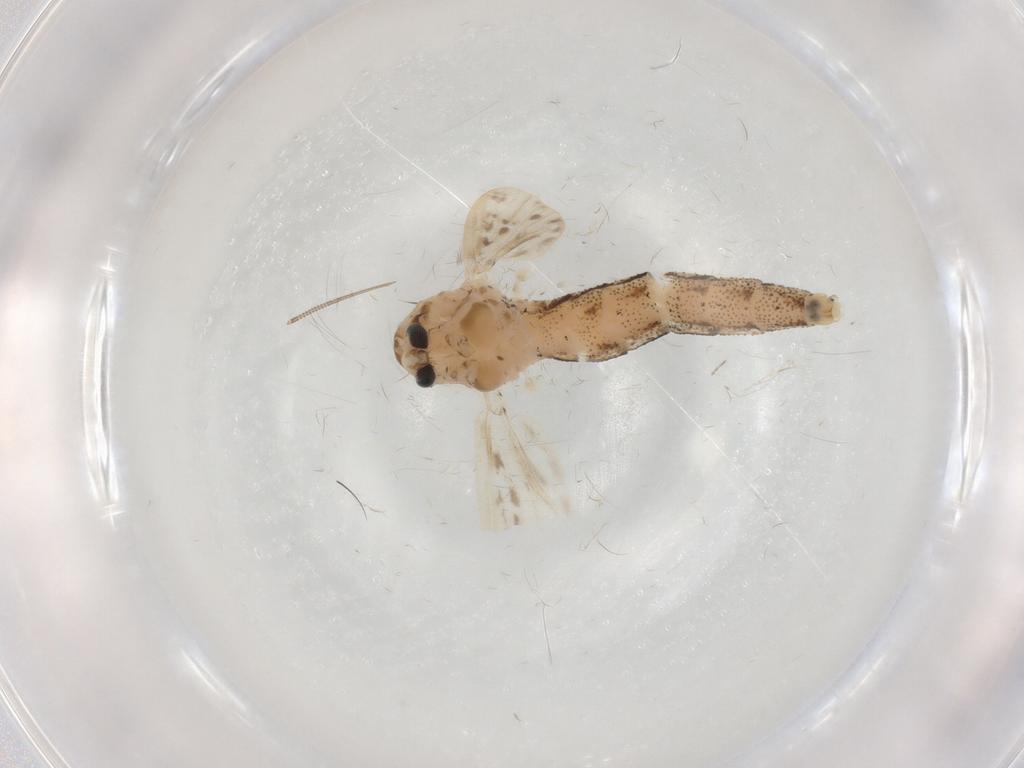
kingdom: Animalia
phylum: Arthropoda
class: Insecta
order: Diptera
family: Chaoboridae
